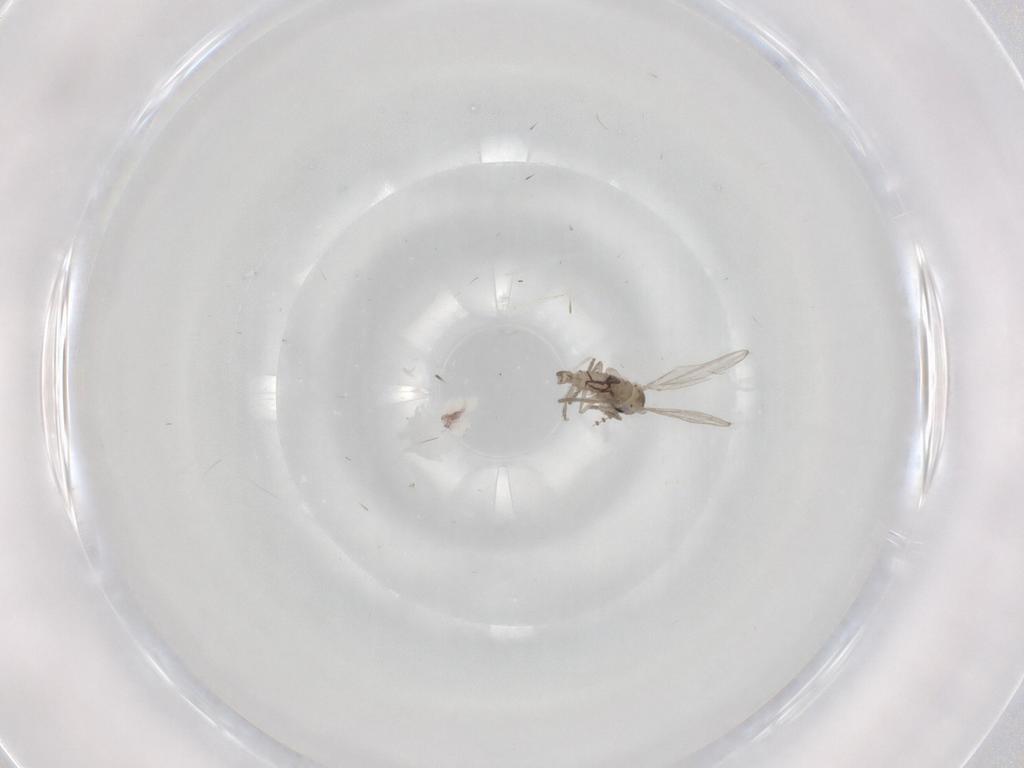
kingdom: Animalia
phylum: Arthropoda
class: Insecta
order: Diptera
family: Psychodidae
